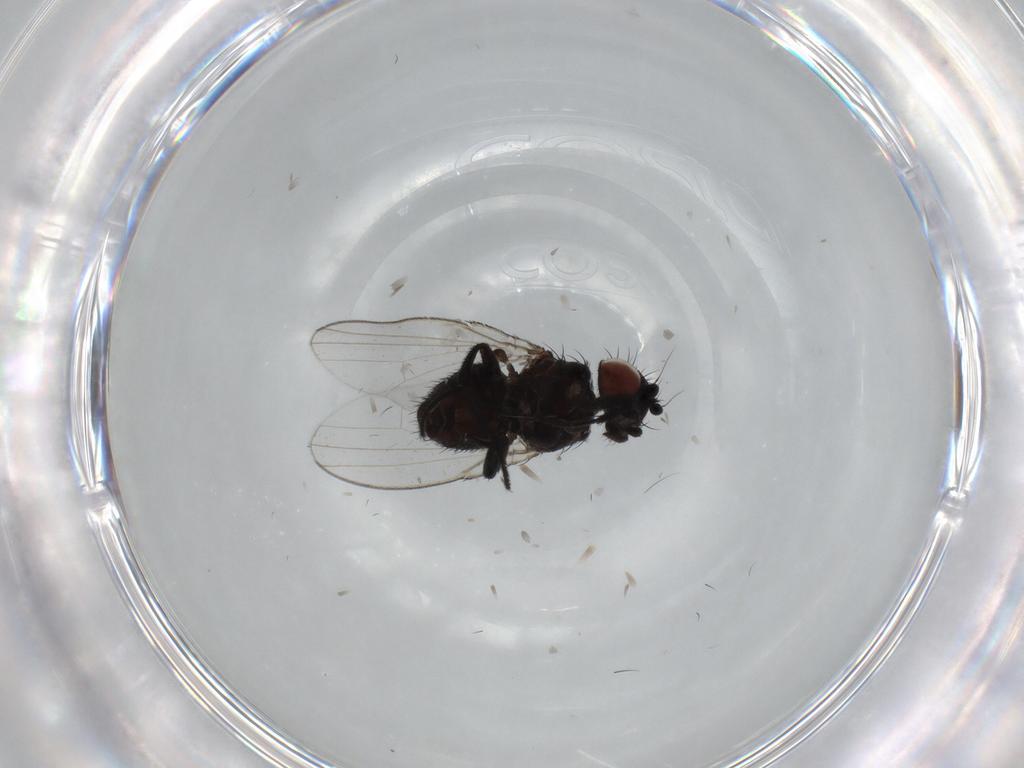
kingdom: Animalia
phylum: Arthropoda
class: Insecta
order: Diptera
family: Milichiidae
